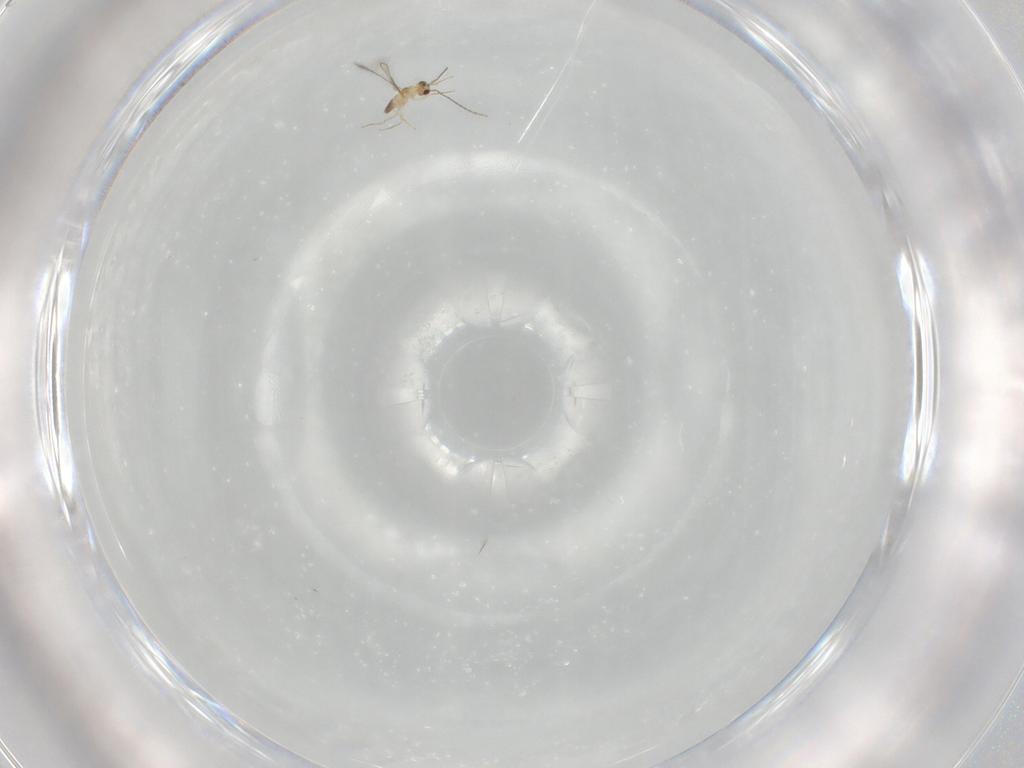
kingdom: Animalia
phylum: Arthropoda
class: Insecta
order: Hymenoptera
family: Mymaridae
